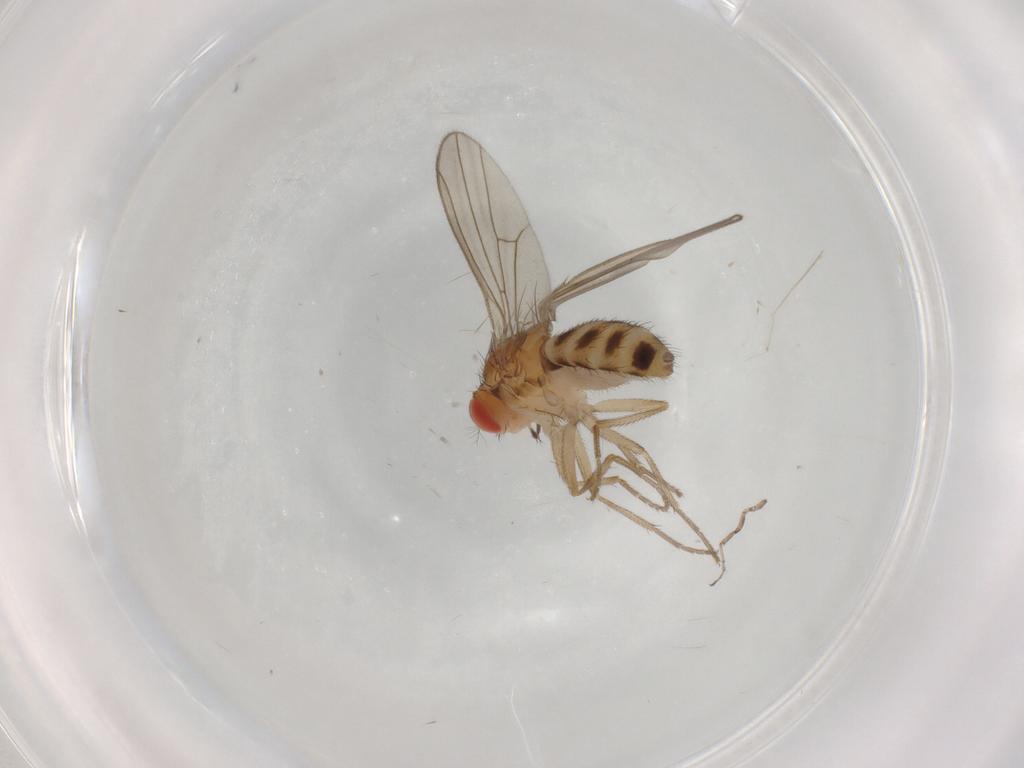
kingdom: Animalia
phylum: Arthropoda
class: Insecta
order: Diptera
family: Drosophilidae
